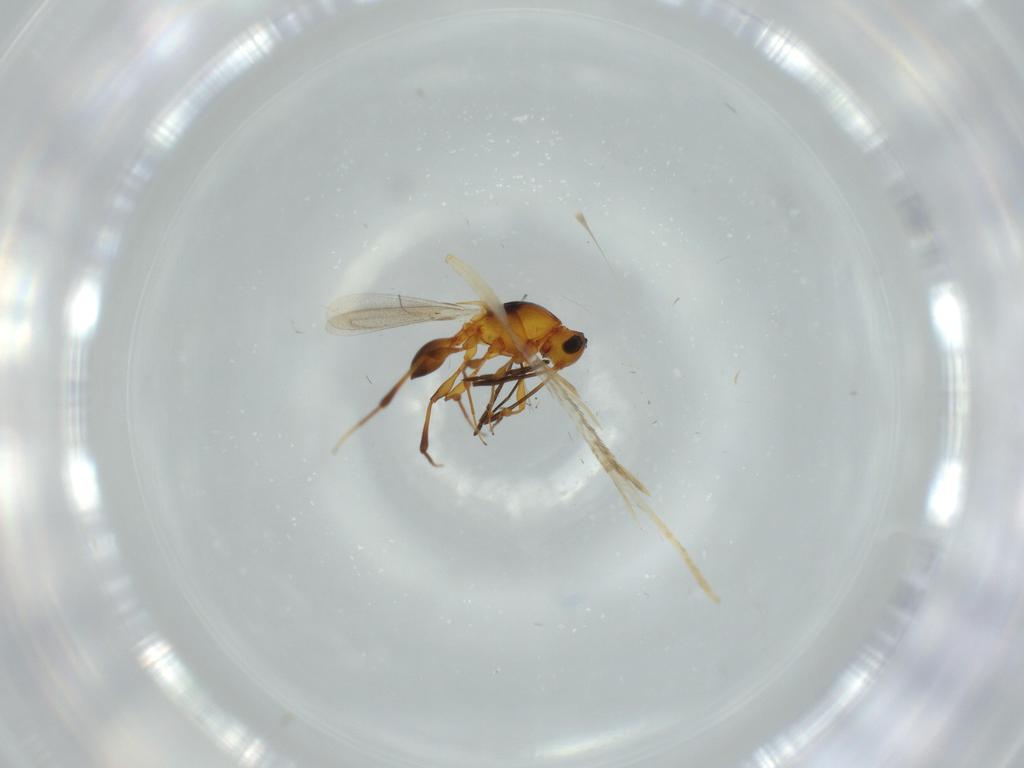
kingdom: Animalia
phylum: Arthropoda
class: Insecta
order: Hymenoptera
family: Platygastridae
